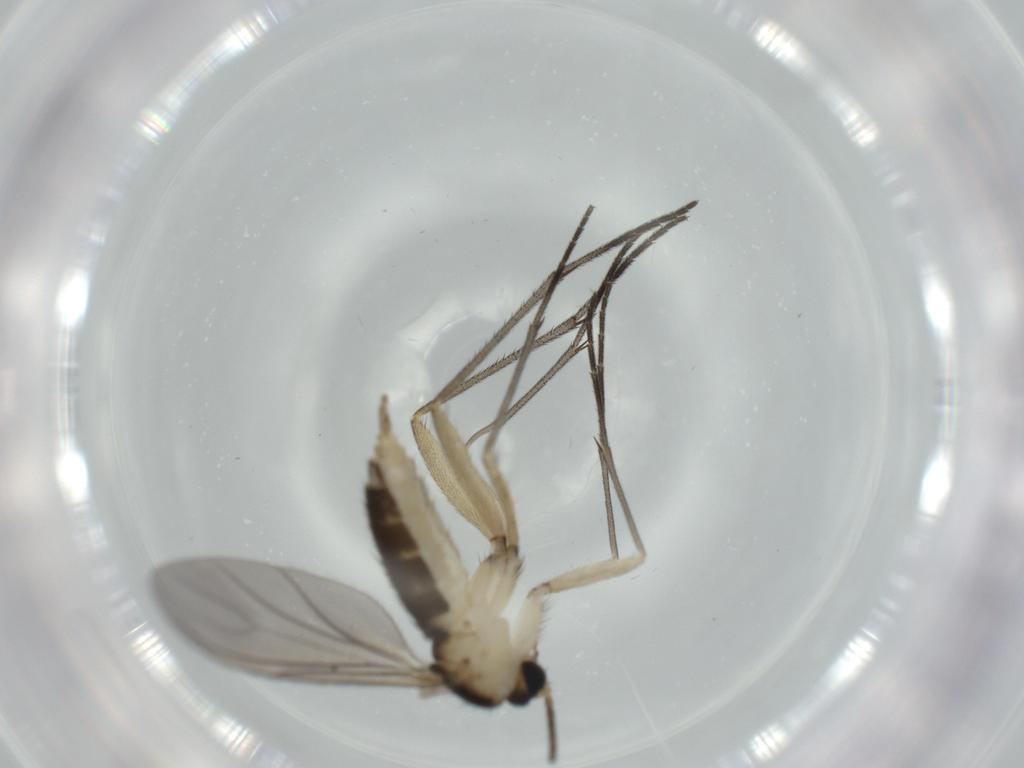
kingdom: Animalia
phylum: Arthropoda
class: Insecta
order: Diptera
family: Sciaridae
